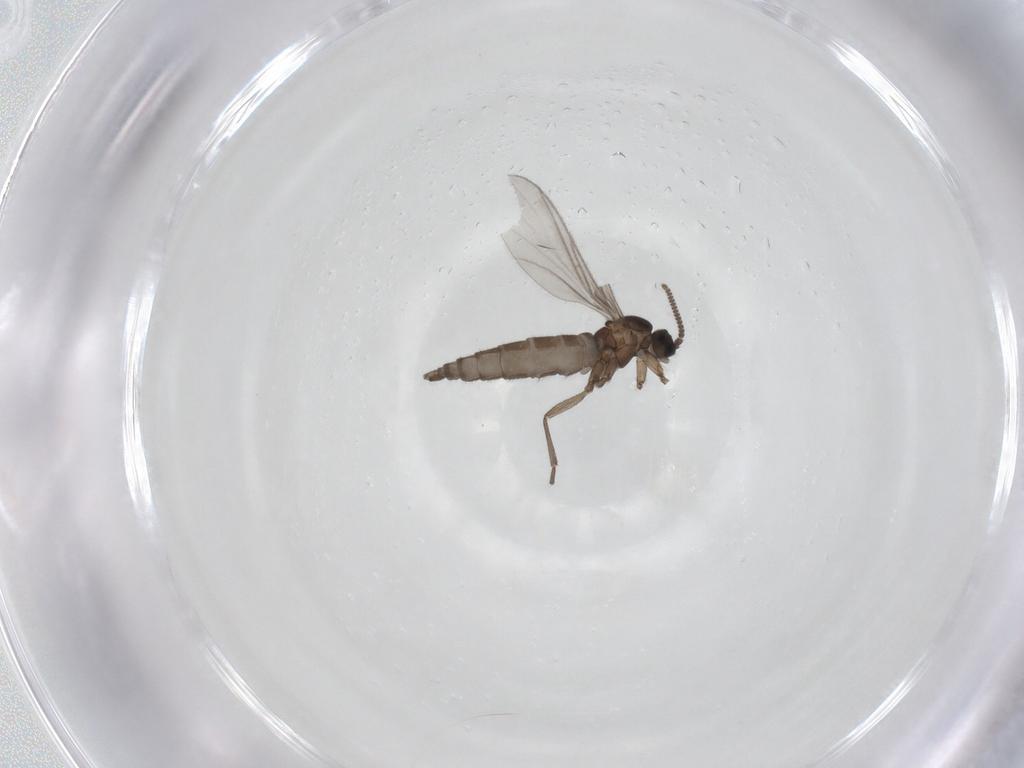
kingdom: Animalia
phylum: Arthropoda
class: Insecta
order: Diptera
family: Sciaridae
